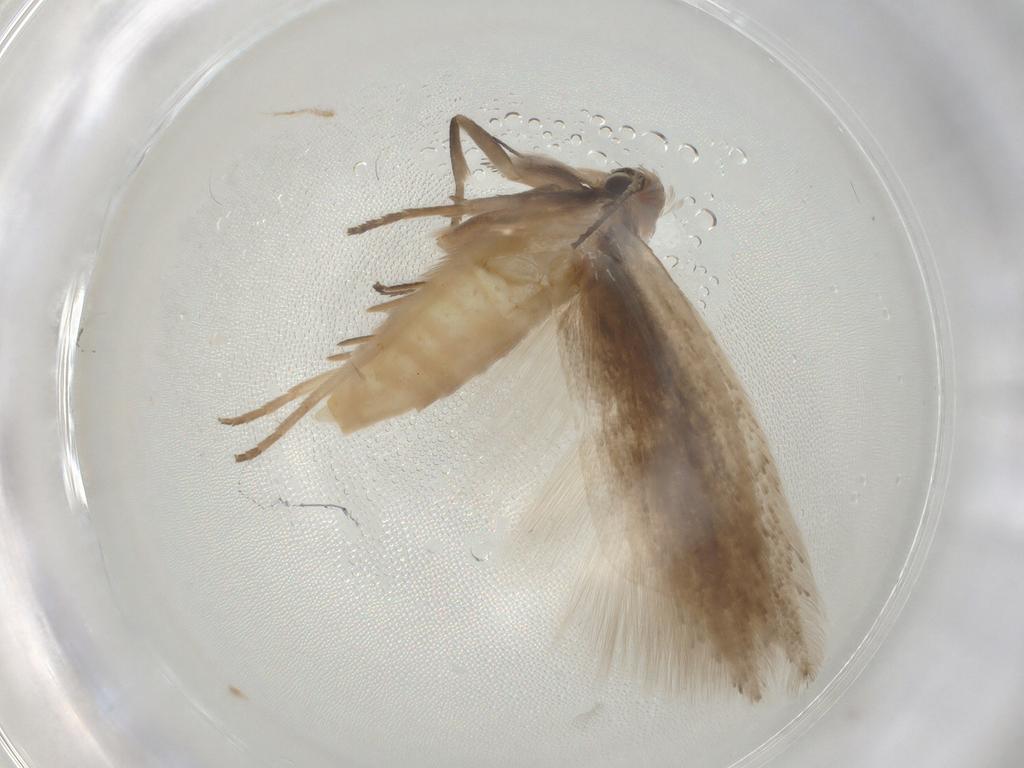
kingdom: Animalia
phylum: Arthropoda
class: Insecta
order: Lepidoptera
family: Gelechiidae
